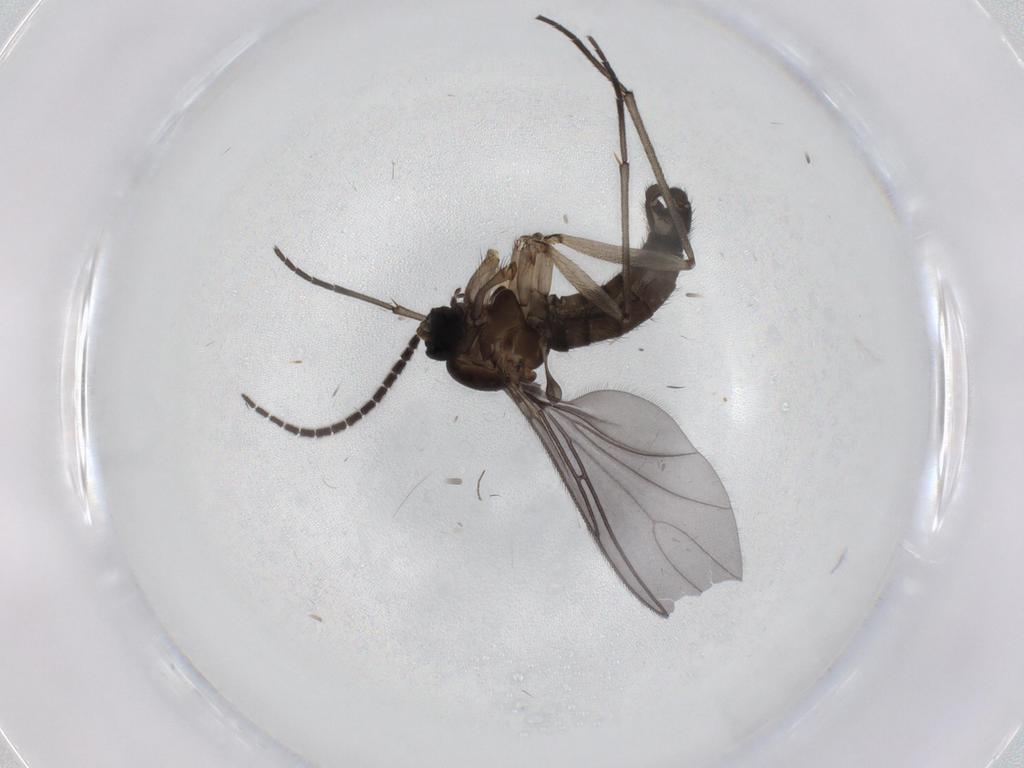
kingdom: Animalia
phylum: Arthropoda
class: Insecta
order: Diptera
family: Sciaridae
